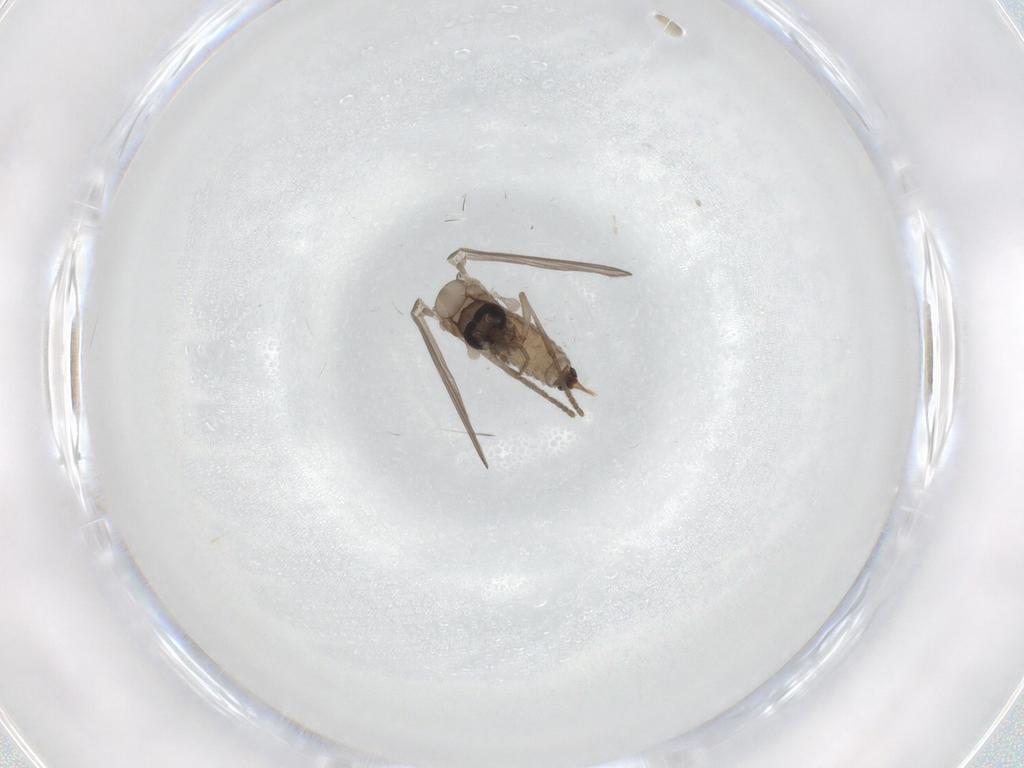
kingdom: Animalia
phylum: Arthropoda
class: Insecta
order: Diptera
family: Psychodidae
